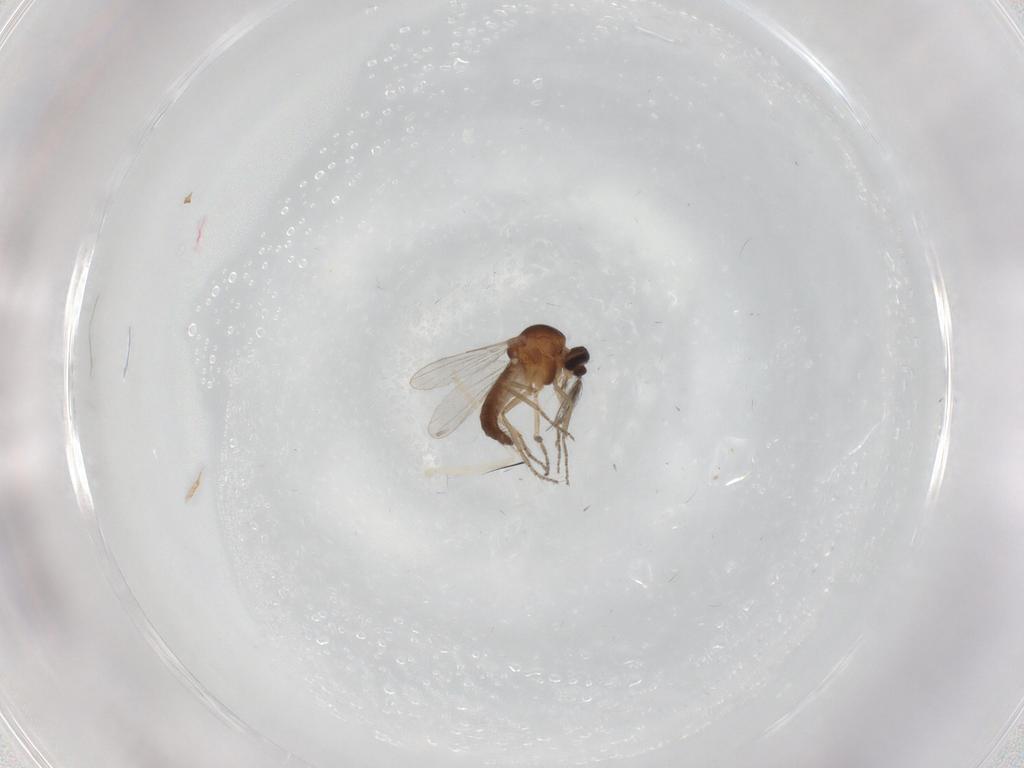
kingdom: Animalia
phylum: Arthropoda
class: Insecta
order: Diptera
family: Ceratopogonidae
